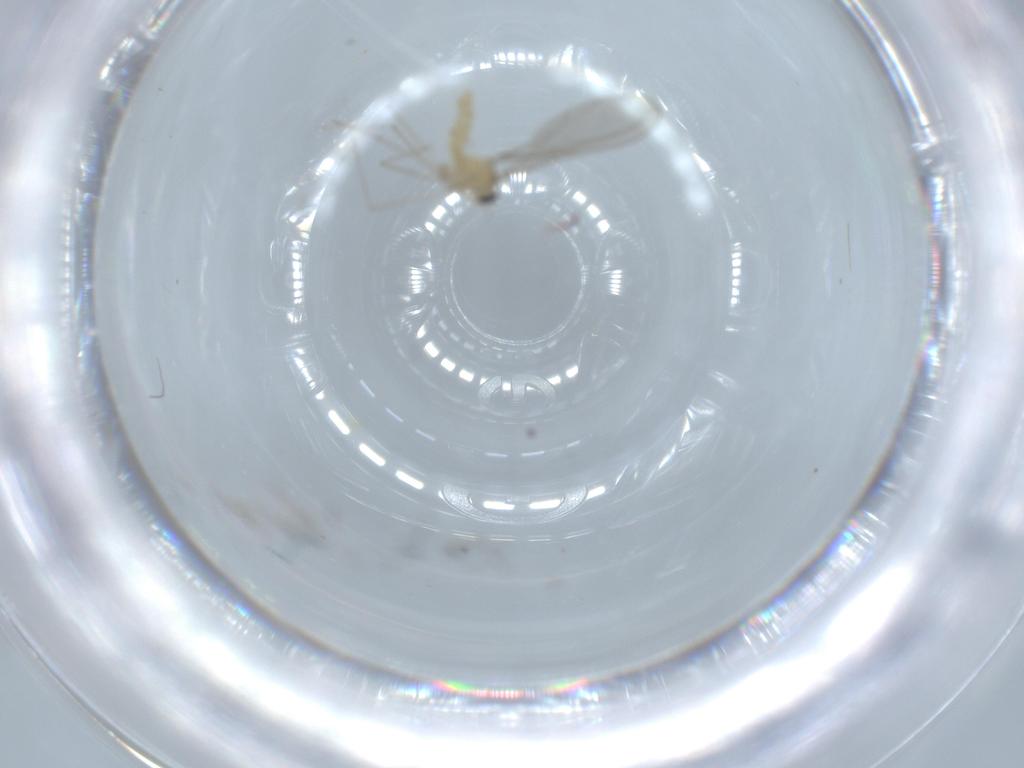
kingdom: Animalia
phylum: Arthropoda
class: Insecta
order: Diptera
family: Cecidomyiidae
